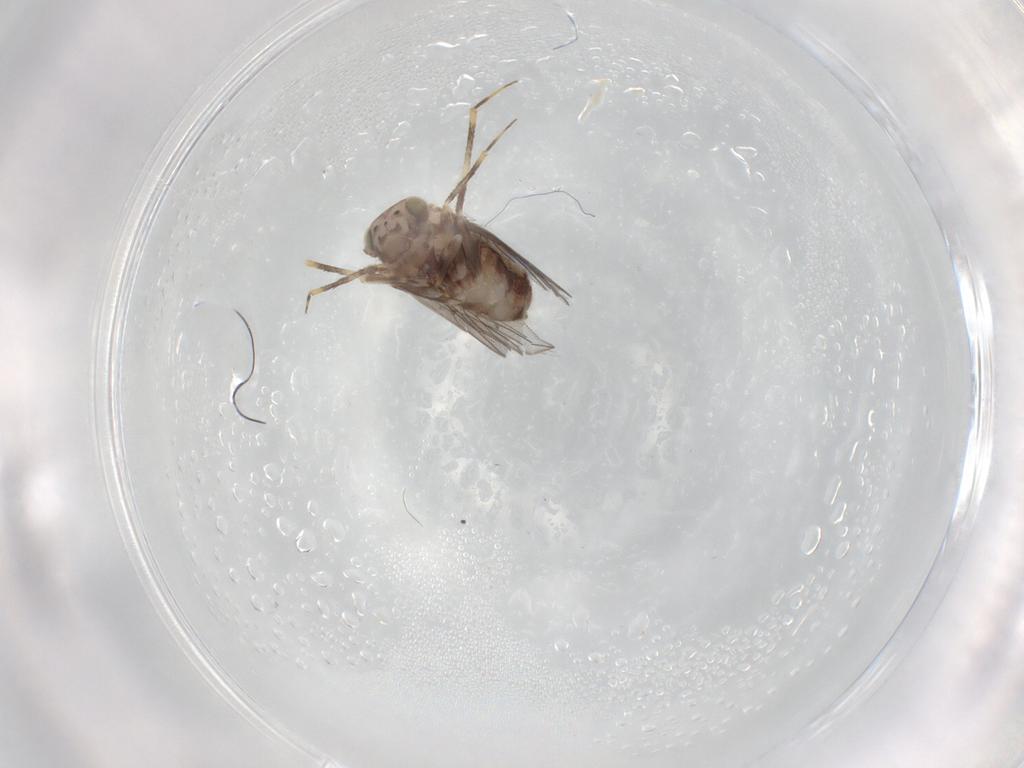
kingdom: Animalia
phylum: Arthropoda
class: Insecta
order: Psocodea
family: Lepidopsocidae
